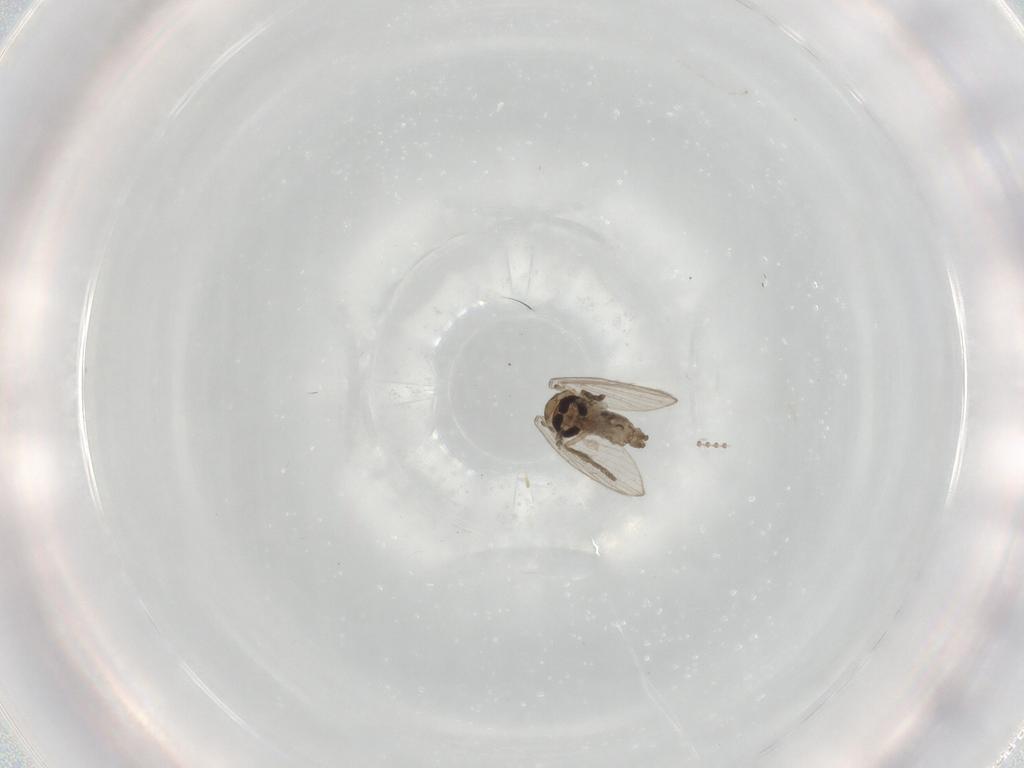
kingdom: Animalia
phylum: Arthropoda
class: Insecta
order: Diptera
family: Psychodidae
